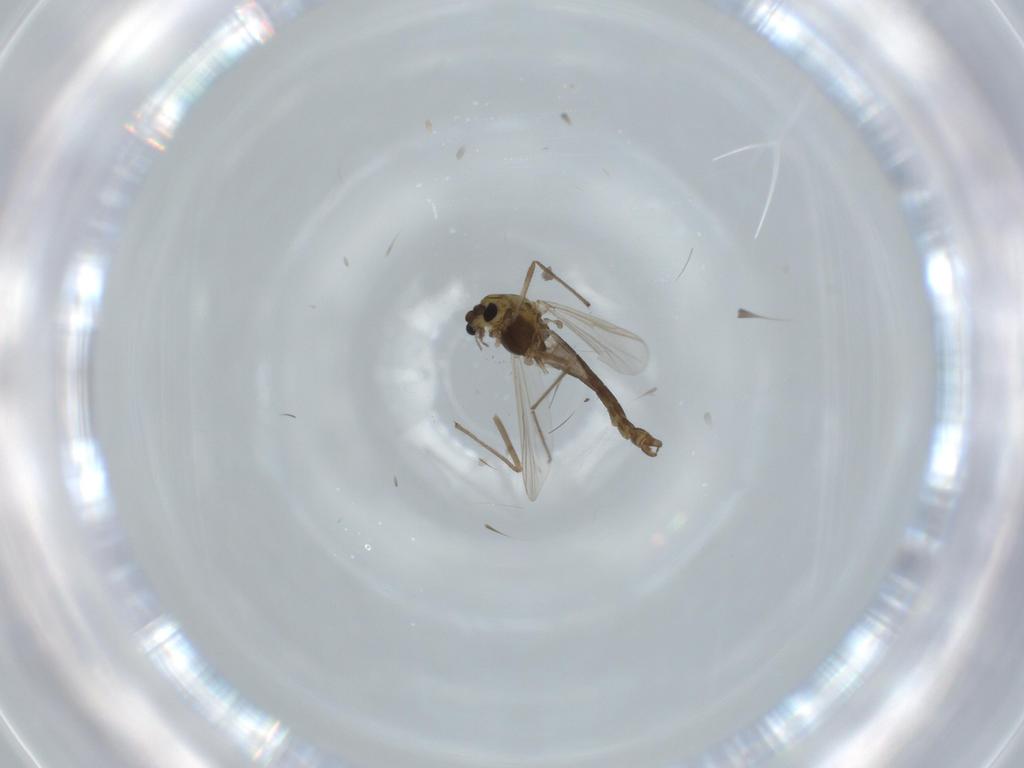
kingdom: Animalia
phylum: Arthropoda
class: Insecta
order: Diptera
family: Chironomidae
